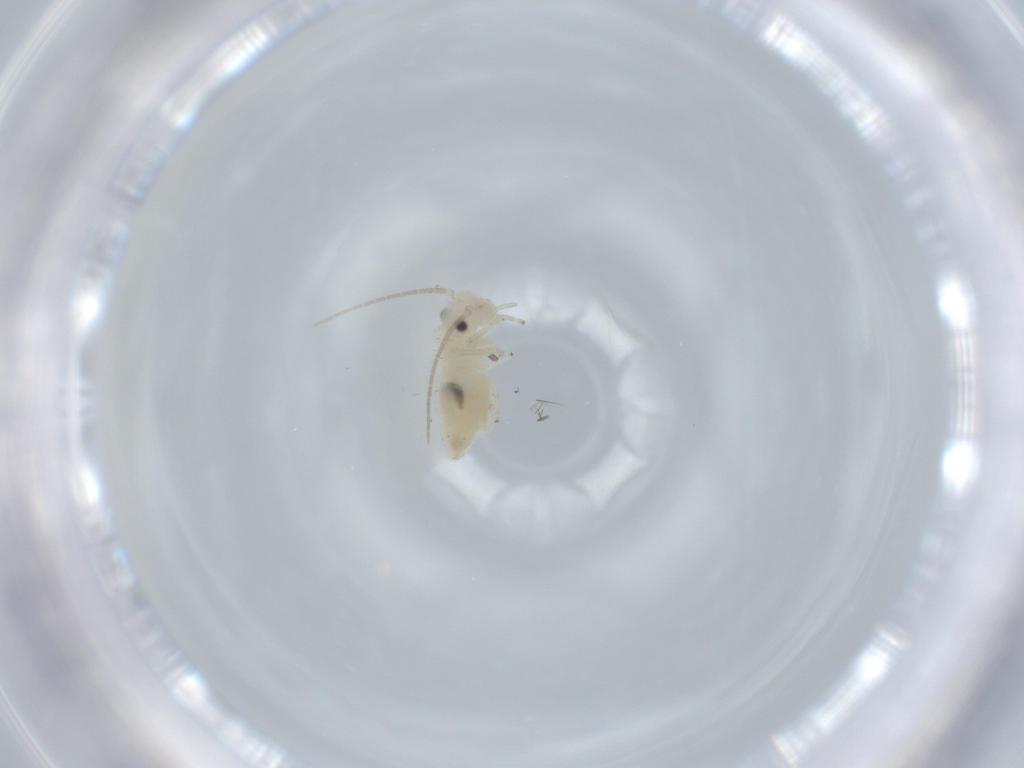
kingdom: Animalia
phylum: Arthropoda
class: Insecta
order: Psocodea
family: Caeciliusidae
